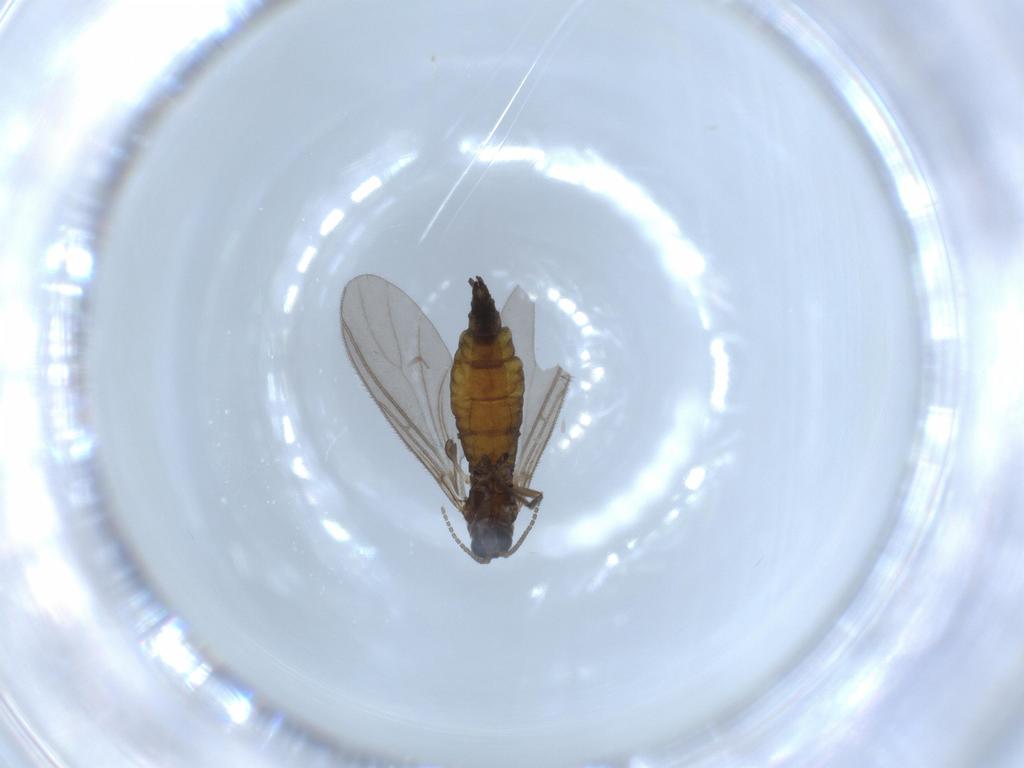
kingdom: Animalia
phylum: Arthropoda
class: Insecta
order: Diptera
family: Sciaridae
